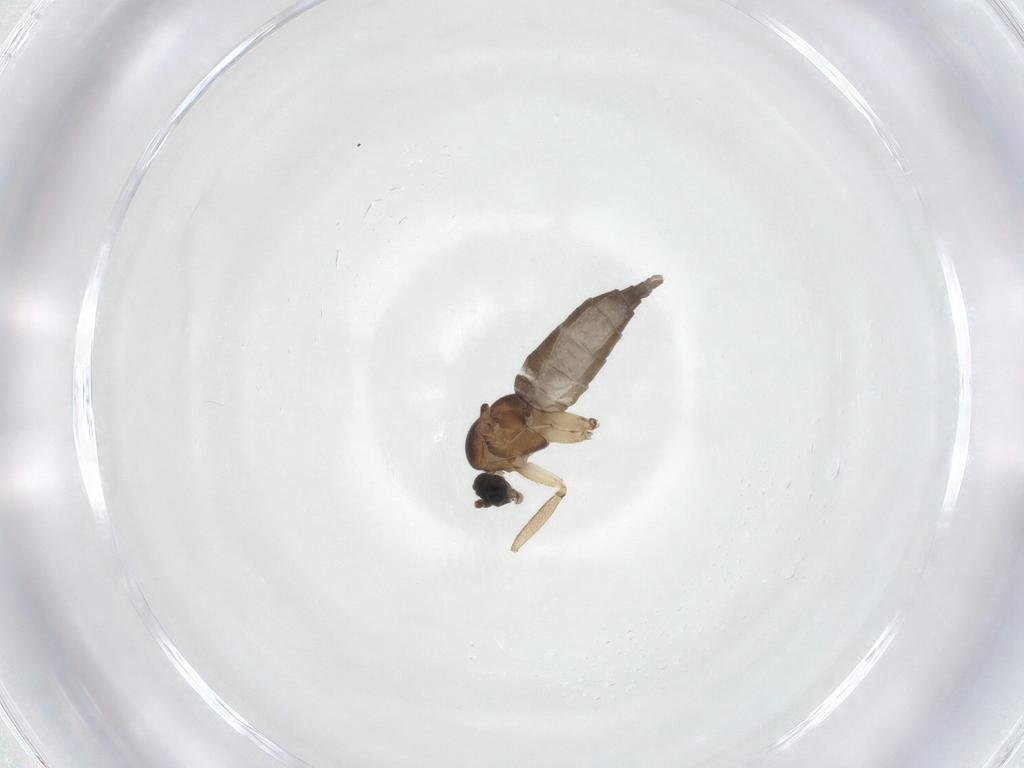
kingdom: Animalia
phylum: Arthropoda
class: Insecta
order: Diptera
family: Sciaridae
